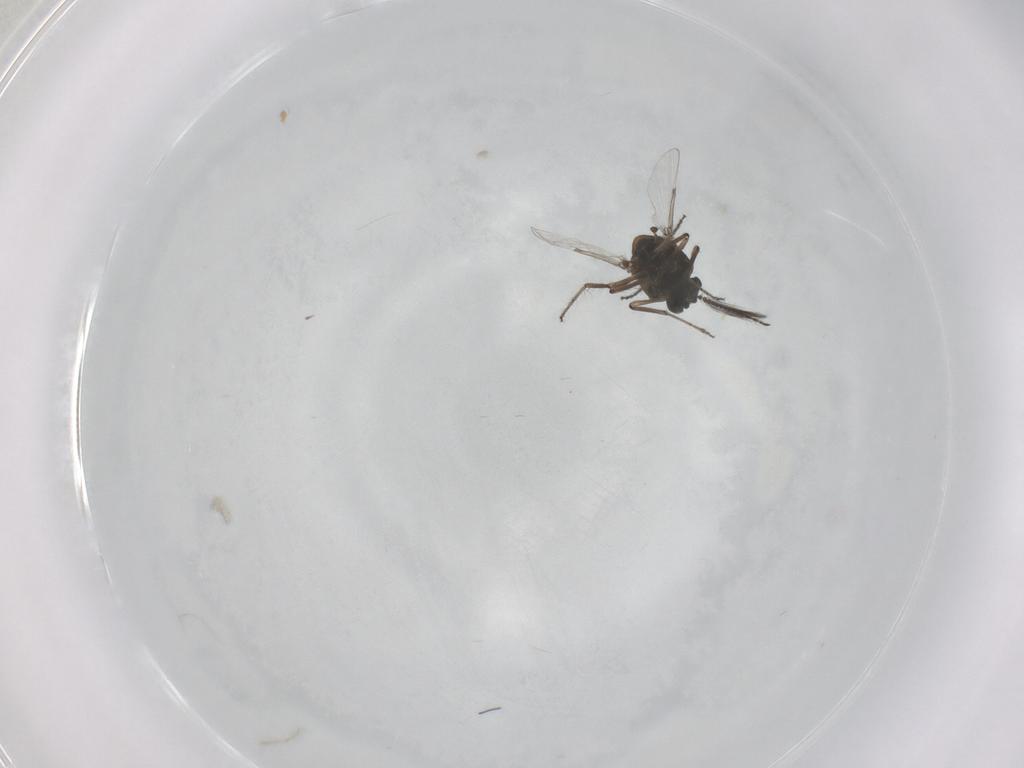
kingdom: Animalia
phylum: Arthropoda
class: Insecta
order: Diptera
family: Ceratopogonidae
